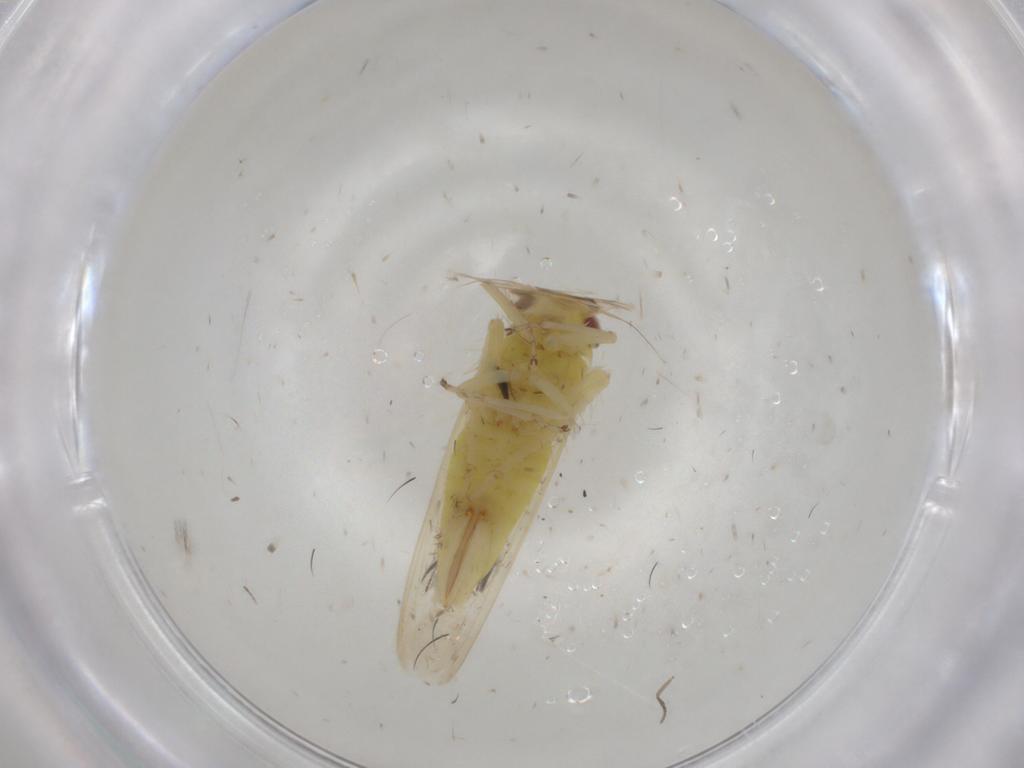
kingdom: Animalia
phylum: Arthropoda
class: Insecta
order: Hemiptera
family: Cicadellidae
